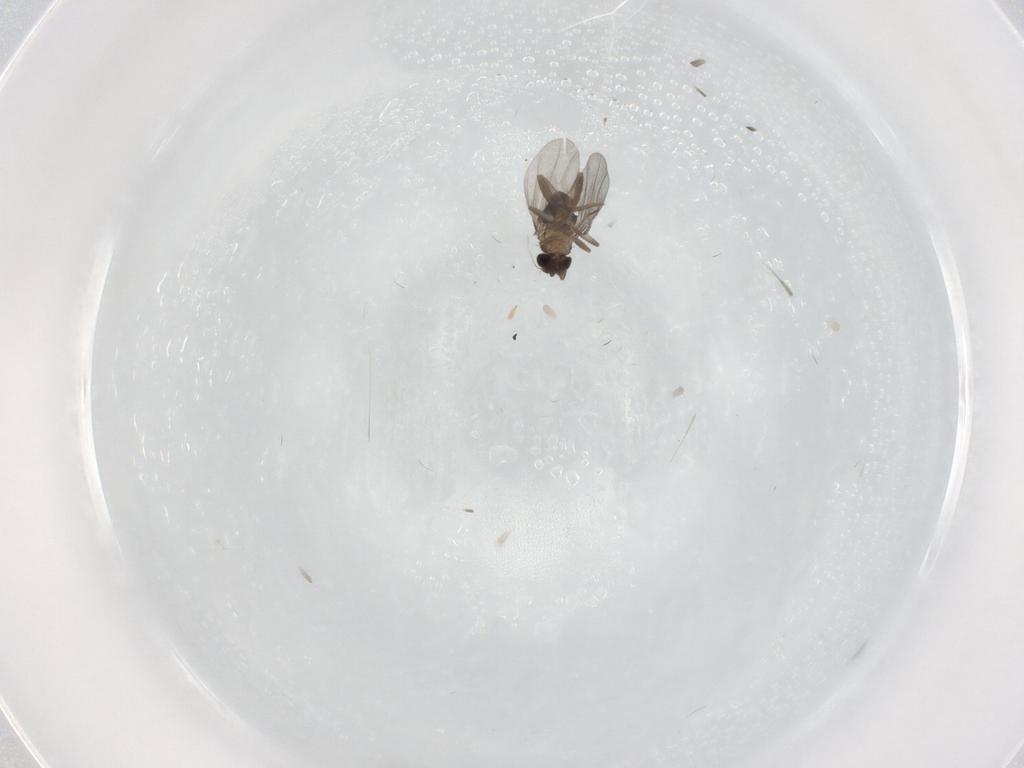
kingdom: Animalia
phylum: Arthropoda
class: Insecta
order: Diptera
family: Phoridae
